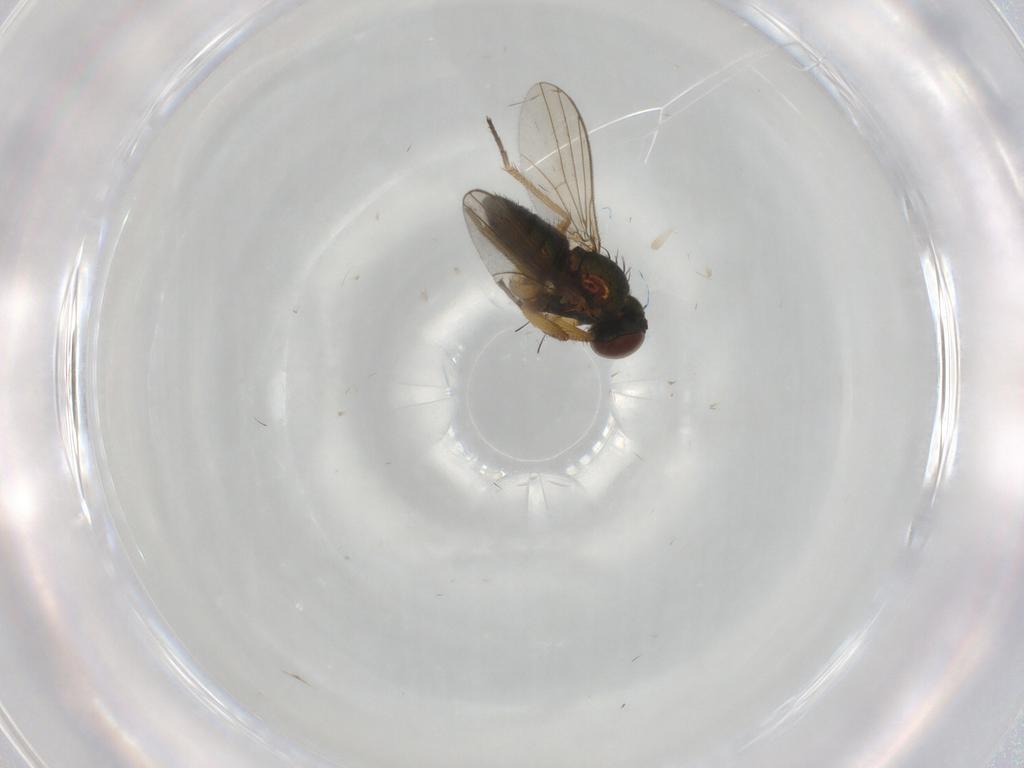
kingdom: Animalia
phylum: Arthropoda
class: Insecta
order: Diptera
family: Dolichopodidae
